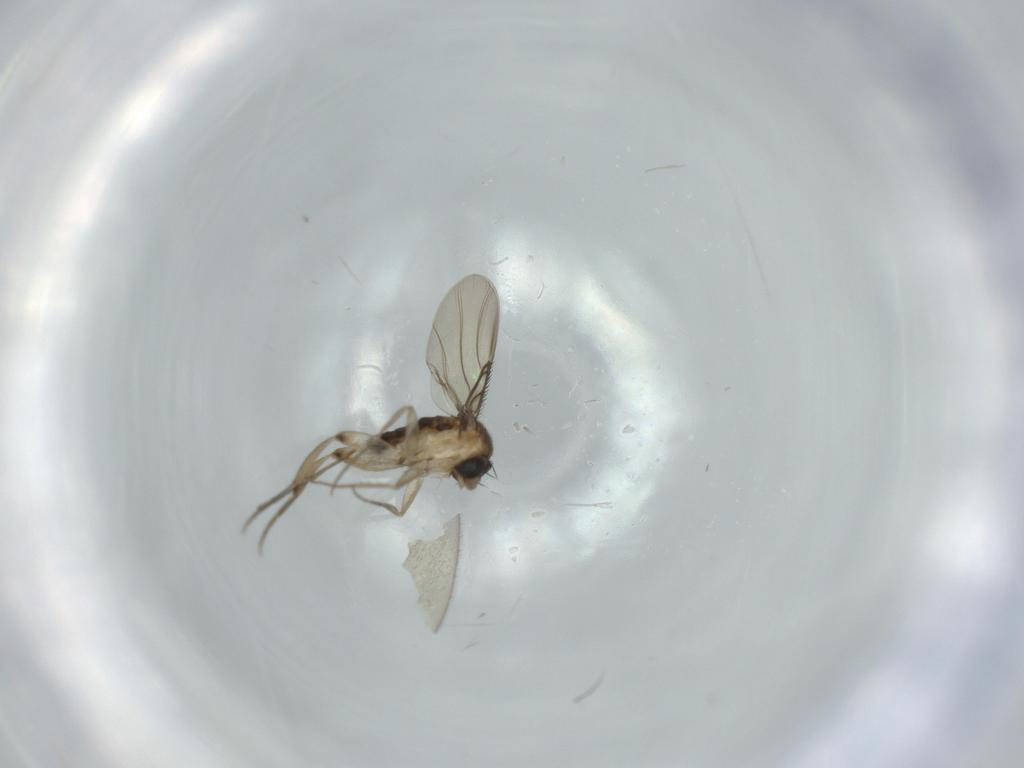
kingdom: Animalia
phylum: Arthropoda
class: Insecta
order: Diptera
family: Phoridae
